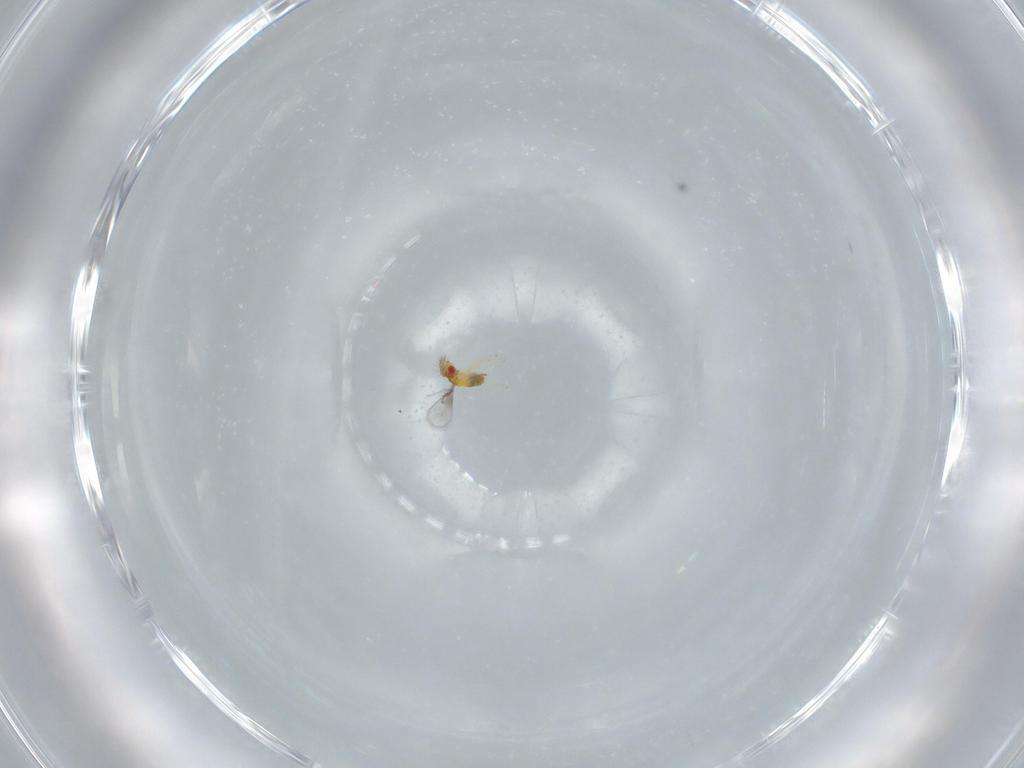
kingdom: Animalia
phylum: Arthropoda
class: Insecta
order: Hymenoptera
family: Trichogrammatidae
